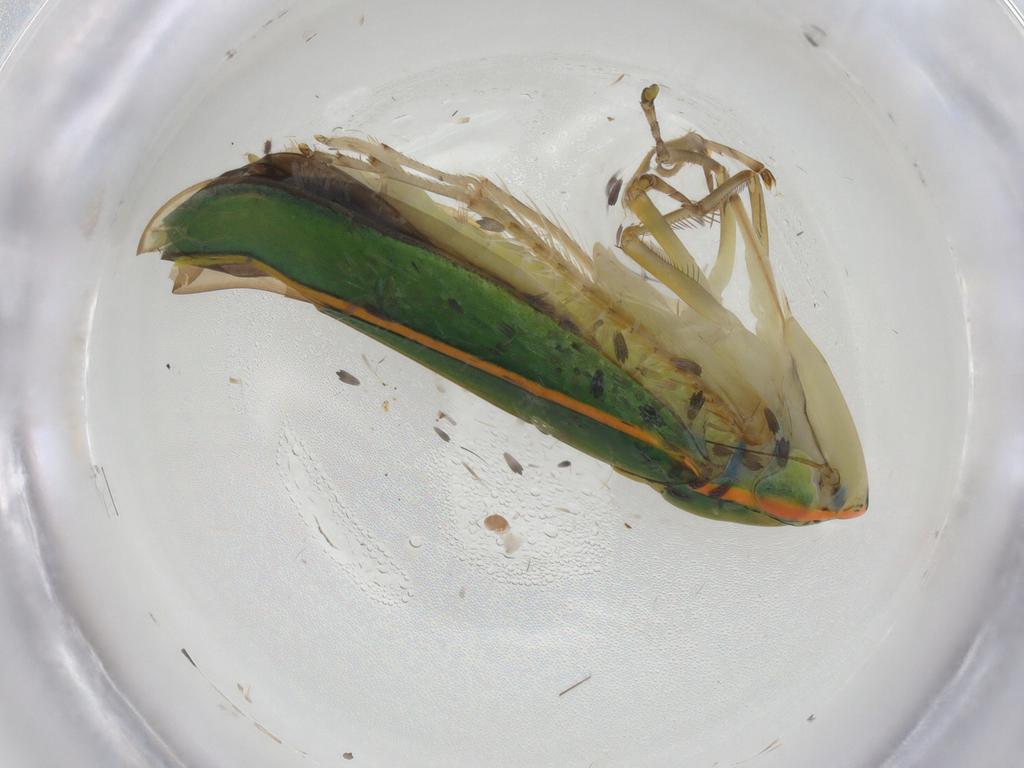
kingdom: Animalia
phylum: Arthropoda
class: Insecta
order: Hemiptera
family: Cicadellidae
